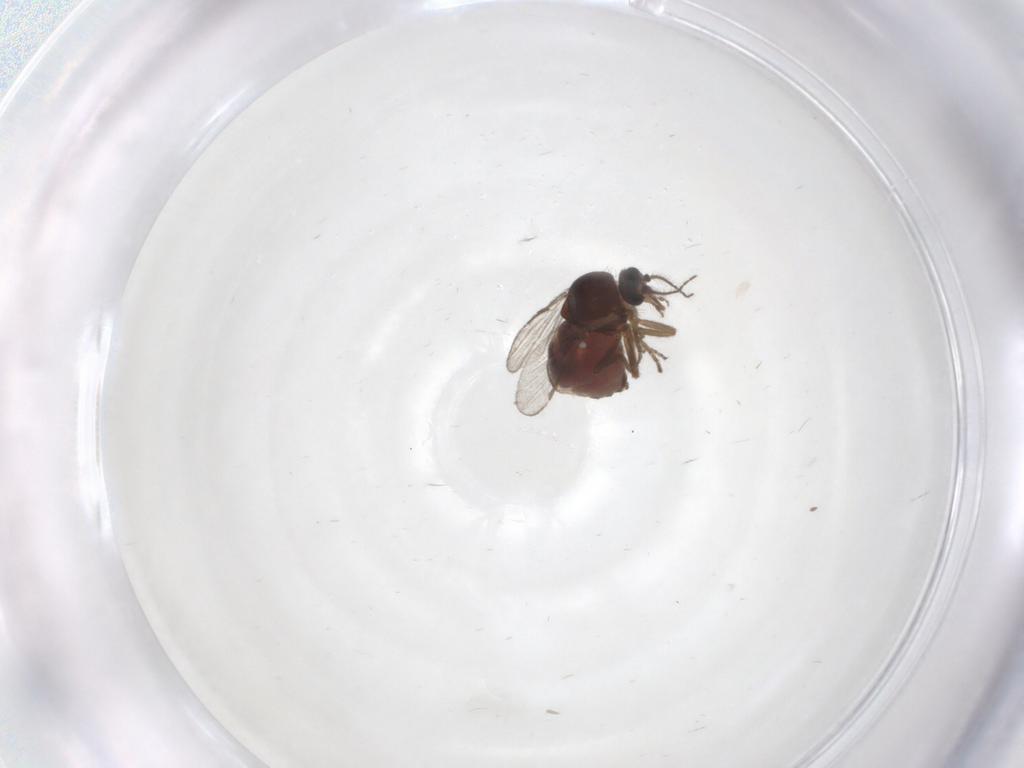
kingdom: Animalia
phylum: Arthropoda
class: Insecta
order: Diptera
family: Ceratopogonidae
